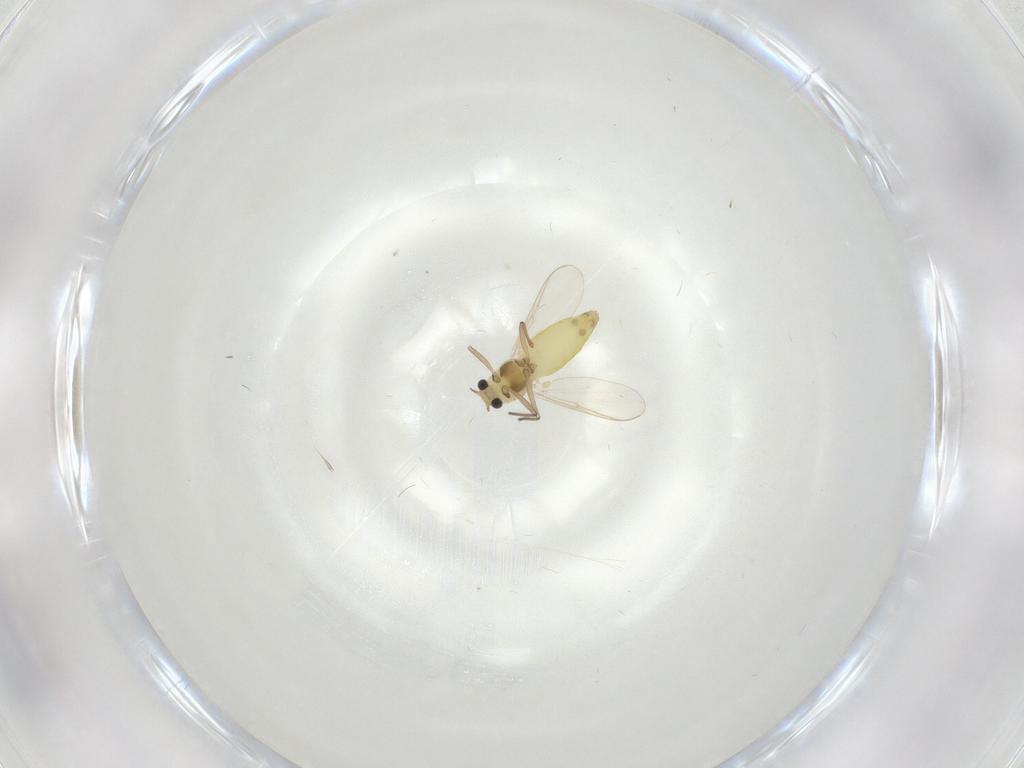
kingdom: Animalia
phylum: Arthropoda
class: Insecta
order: Diptera
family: Chironomidae
